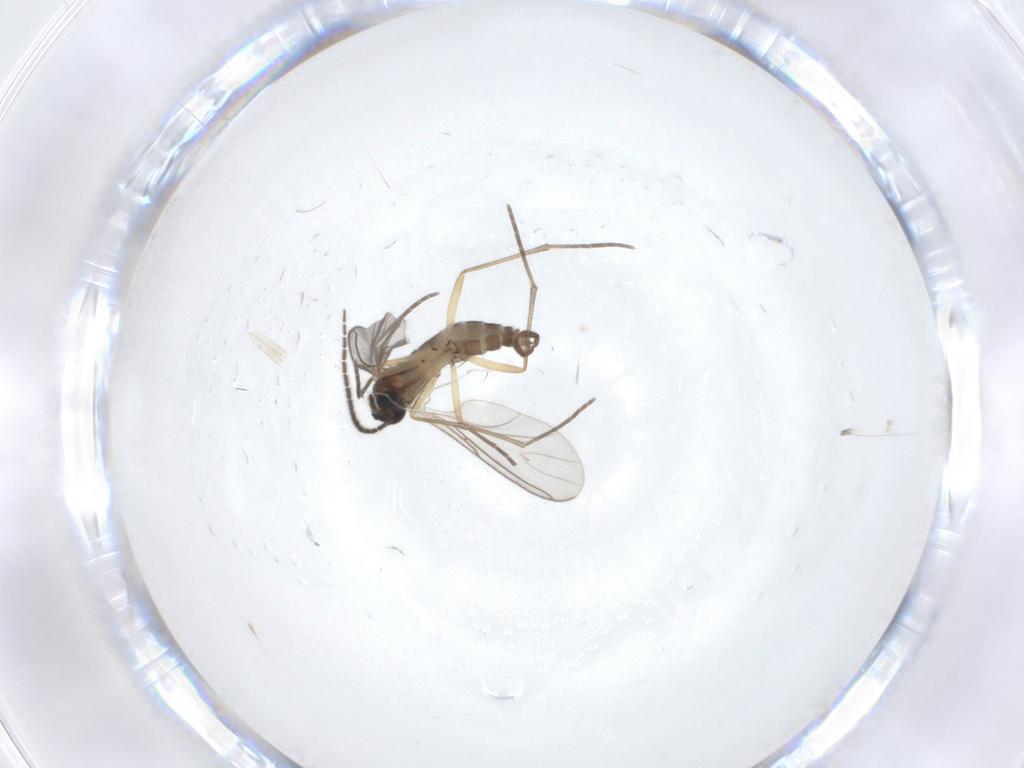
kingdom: Animalia
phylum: Arthropoda
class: Insecta
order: Diptera
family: Sciaridae
